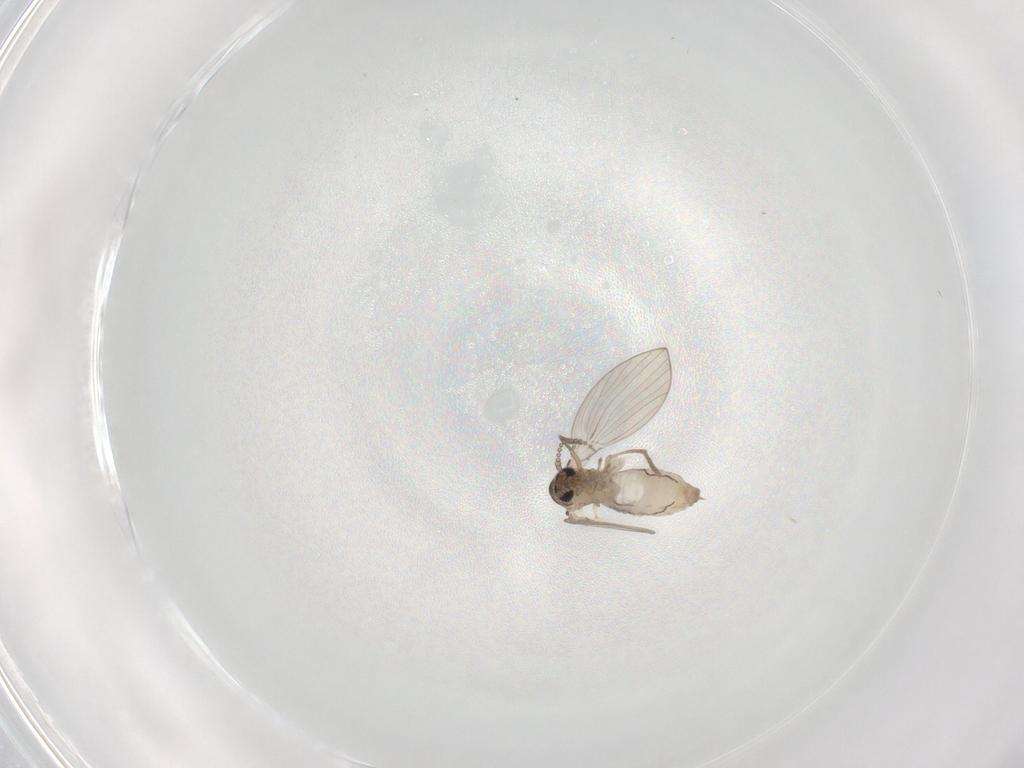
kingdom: Animalia
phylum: Arthropoda
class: Insecta
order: Diptera
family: Psychodidae
